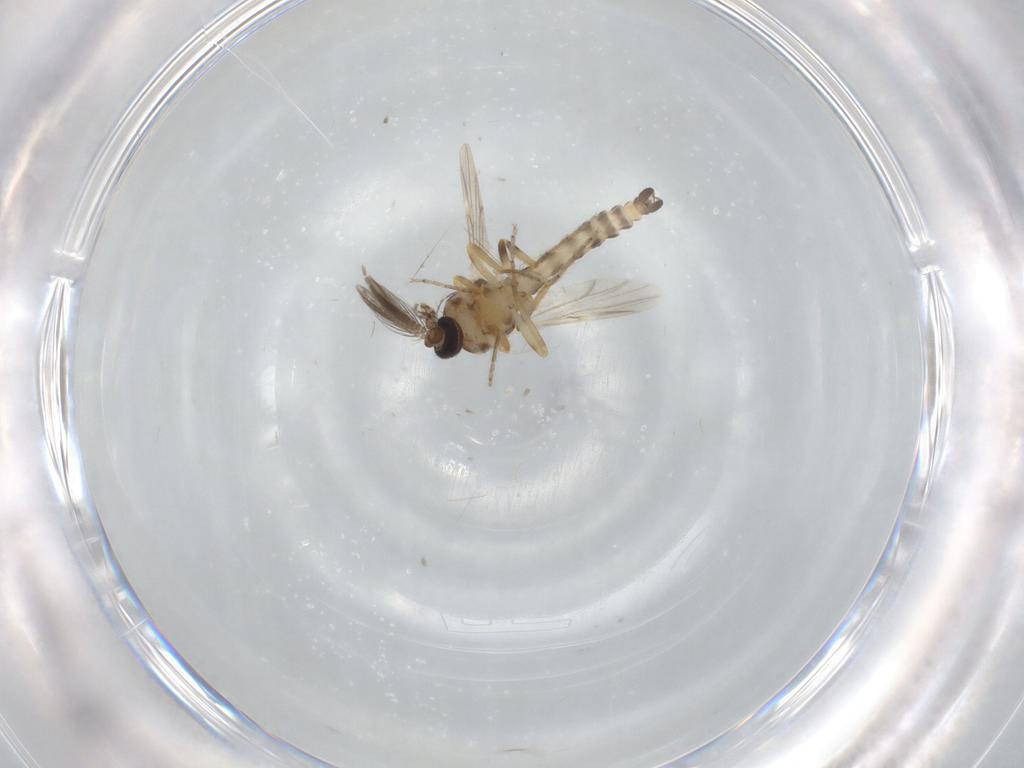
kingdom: Animalia
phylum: Arthropoda
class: Insecta
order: Diptera
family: Ceratopogonidae
